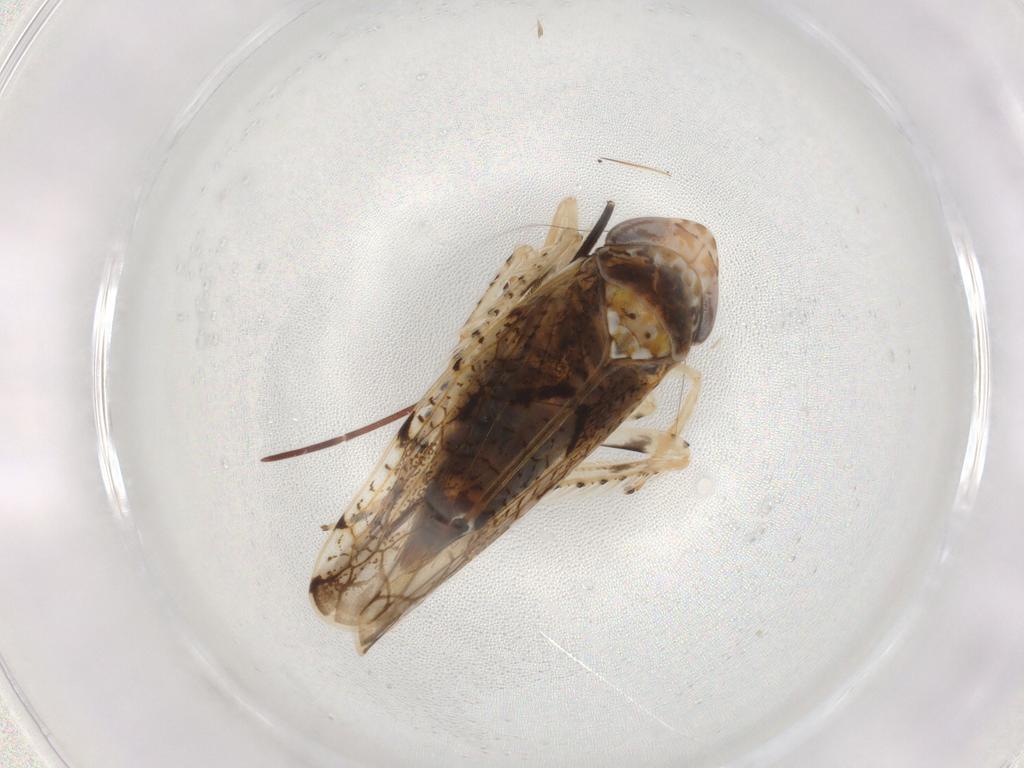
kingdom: Animalia
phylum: Arthropoda
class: Insecta
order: Hemiptera
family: Cicadellidae
